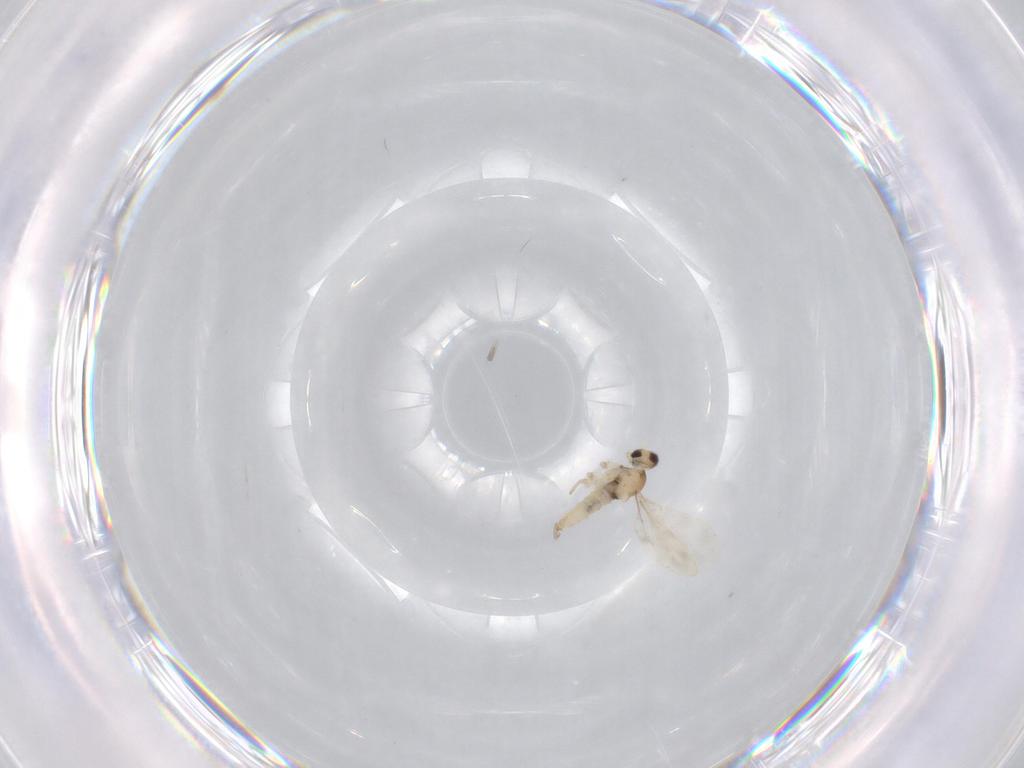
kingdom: Animalia
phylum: Arthropoda
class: Insecta
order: Diptera
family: Cecidomyiidae
